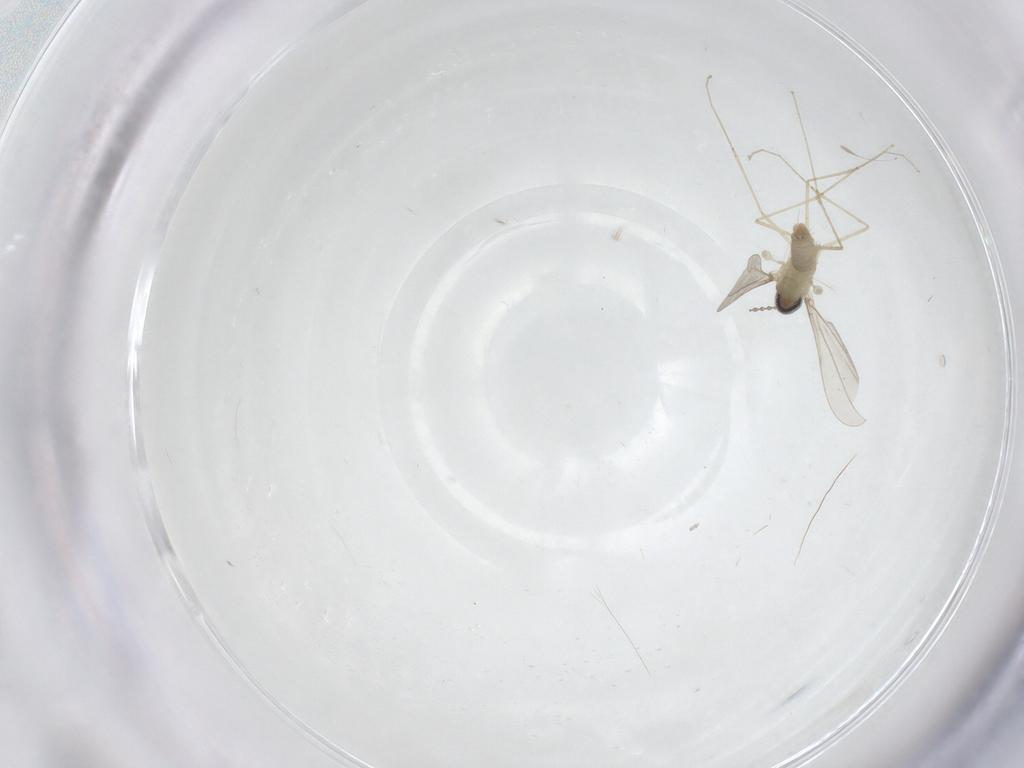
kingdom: Animalia
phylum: Arthropoda
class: Insecta
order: Diptera
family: Cecidomyiidae
